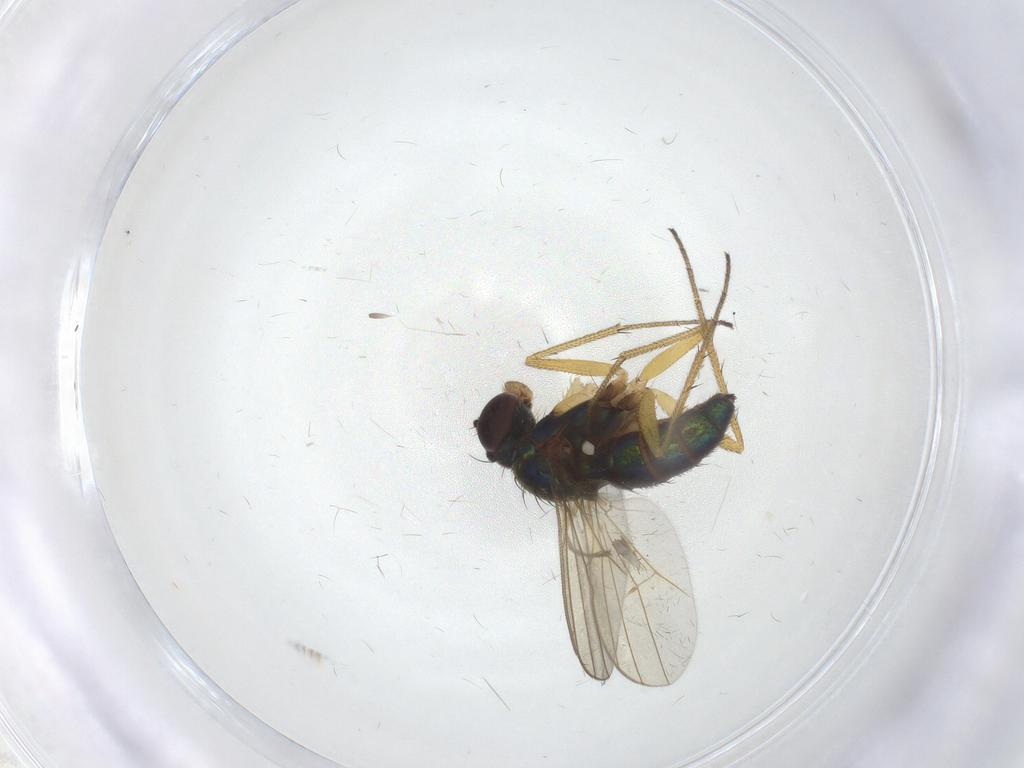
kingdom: Animalia
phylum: Arthropoda
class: Insecta
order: Diptera
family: Dolichopodidae
